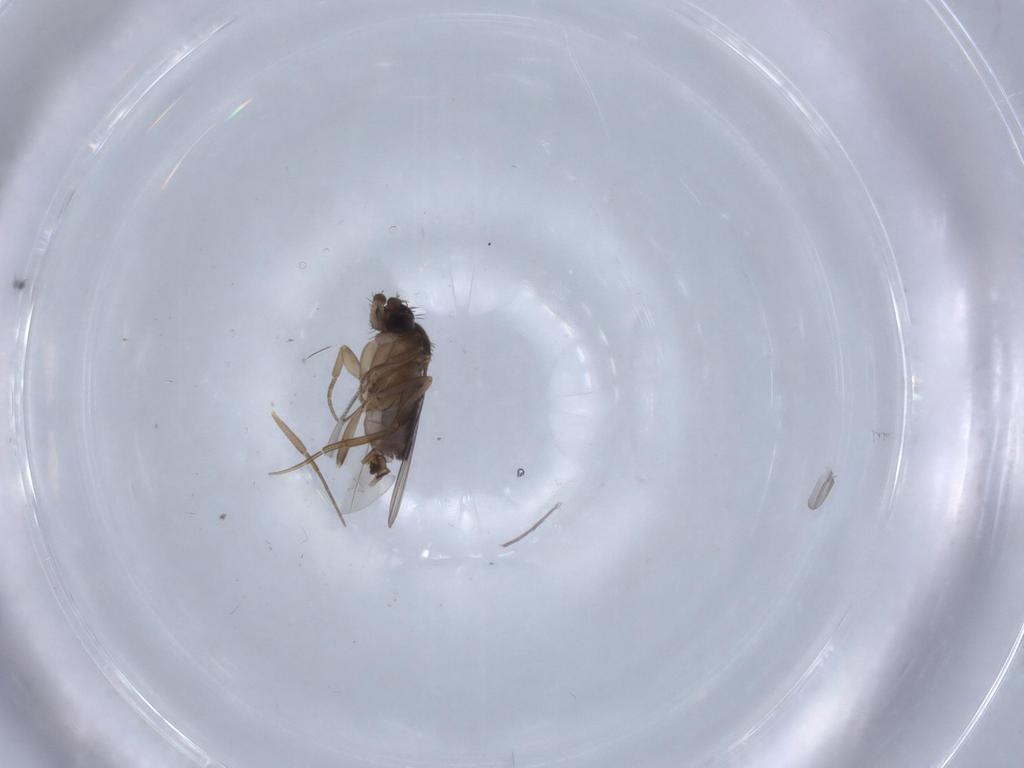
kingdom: Animalia
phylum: Arthropoda
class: Insecta
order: Diptera
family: Phoridae
